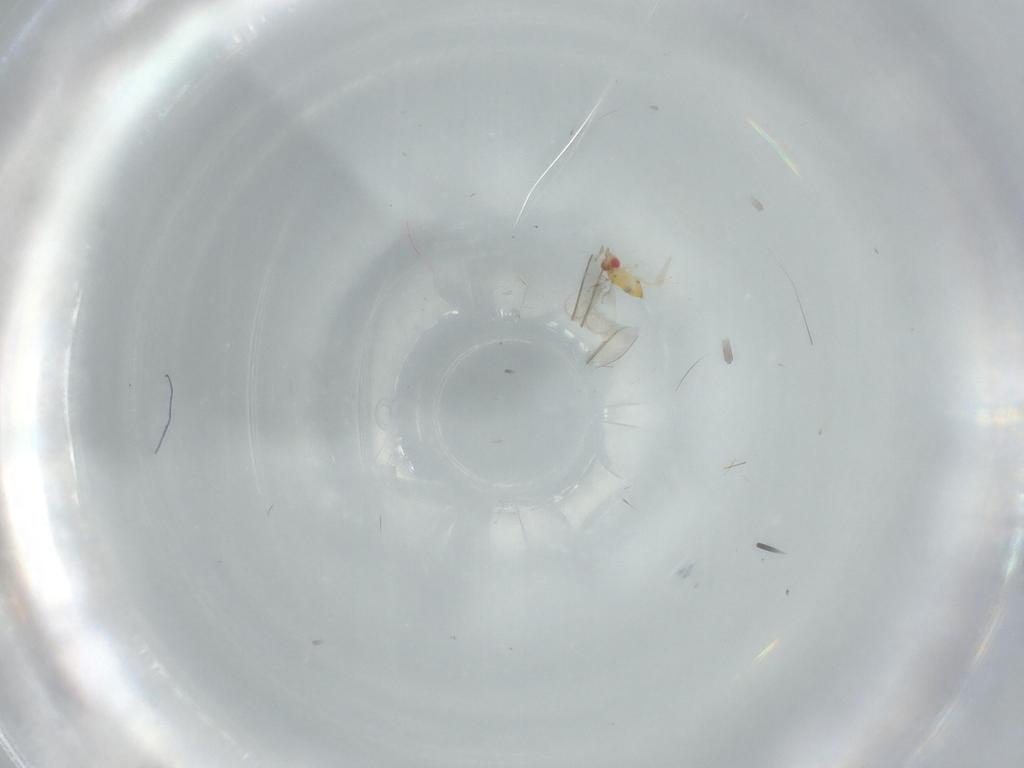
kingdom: Animalia
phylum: Arthropoda
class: Insecta
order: Hymenoptera
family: Trichogrammatidae
